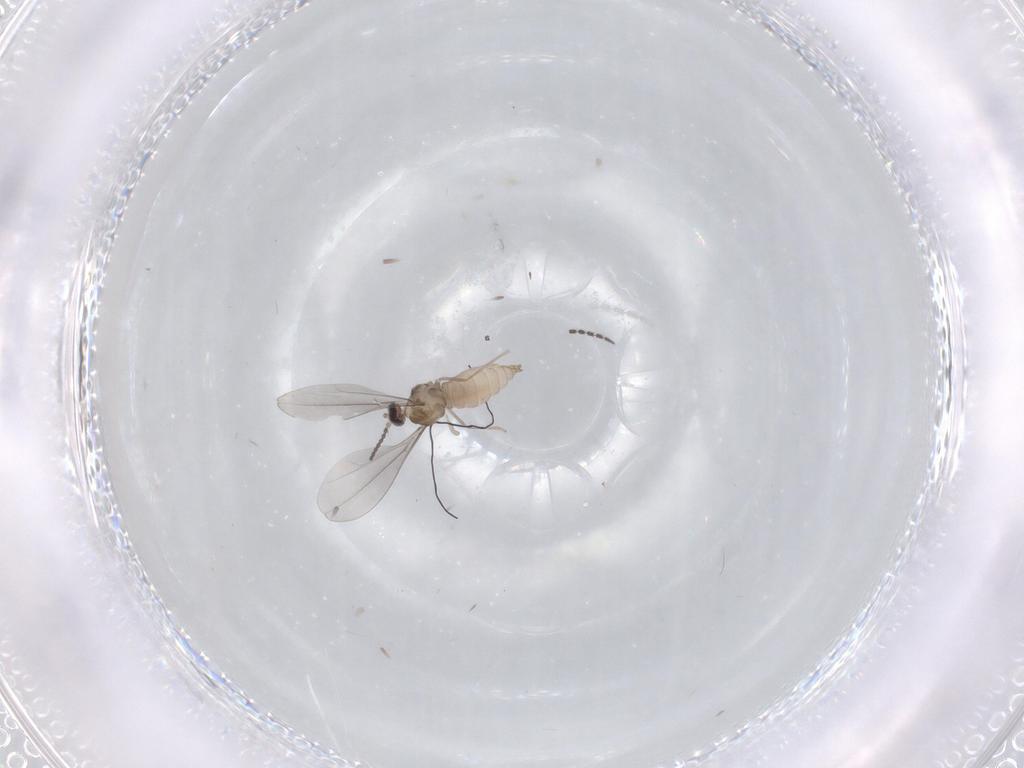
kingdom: Animalia
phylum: Arthropoda
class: Insecta
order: Diptera
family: Cecidomyiidae
